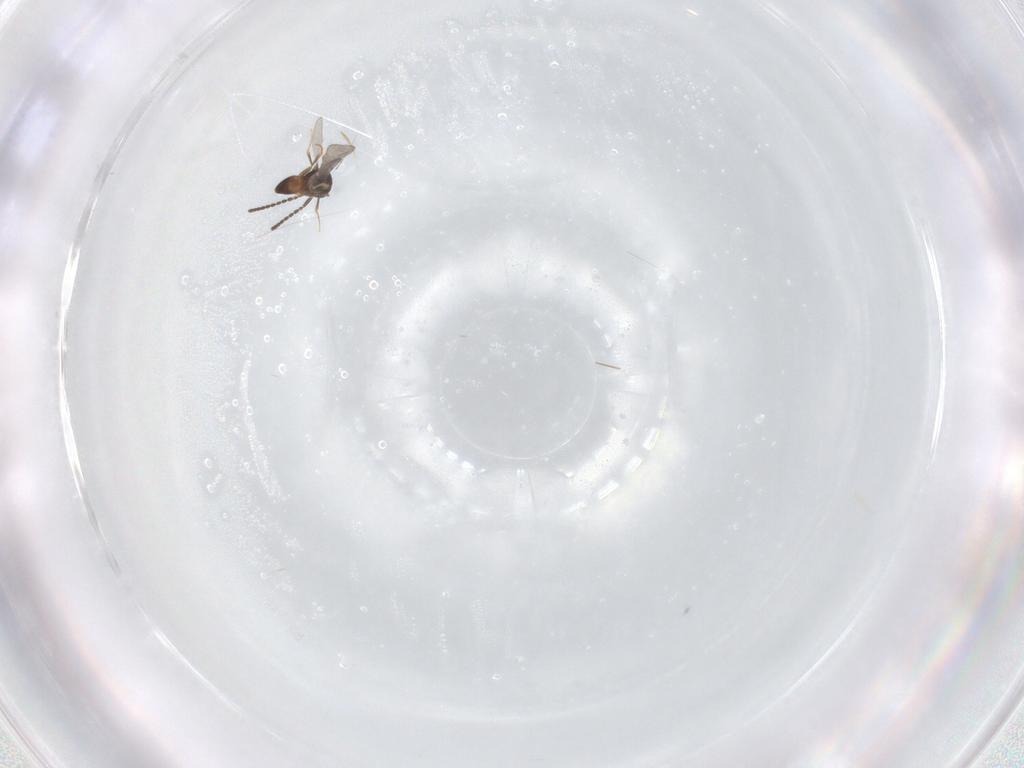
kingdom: Animalia
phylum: Arthropoda
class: Insecta
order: Hymenoptera
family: Ceraphronidae
